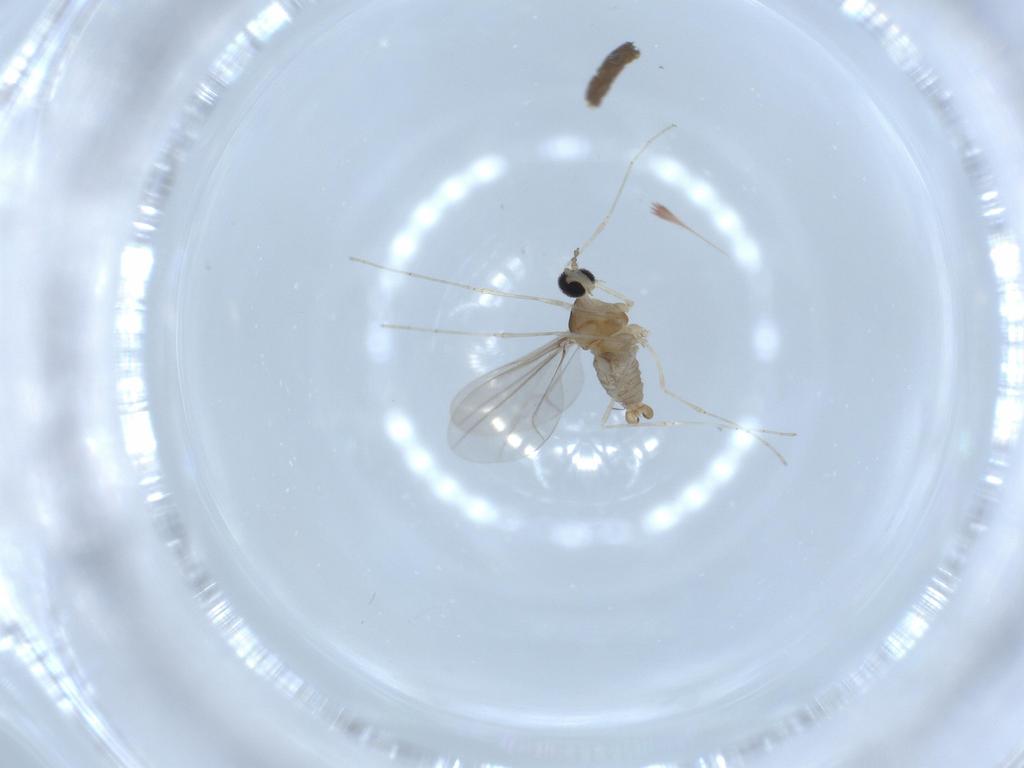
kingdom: Animalia
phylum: Arthropoda
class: Insecta
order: Diptera
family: Cecidomyiidae
